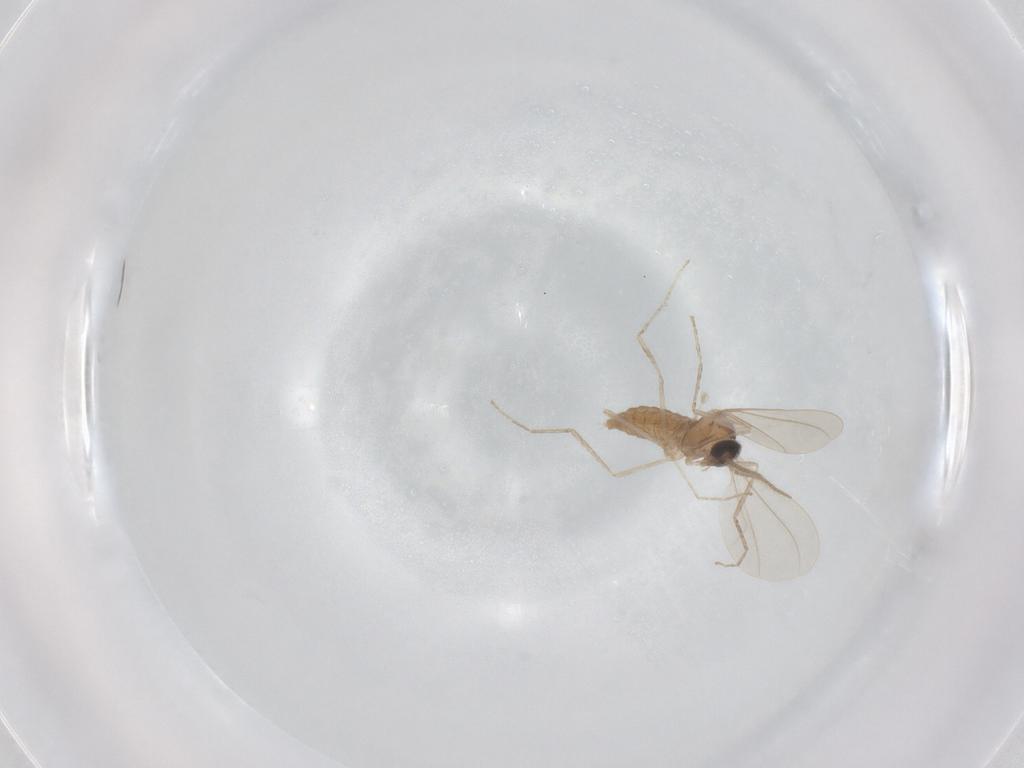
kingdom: Animalia
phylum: Arthropoda
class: Insecta
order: Diptera
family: Cecidomyiidae
